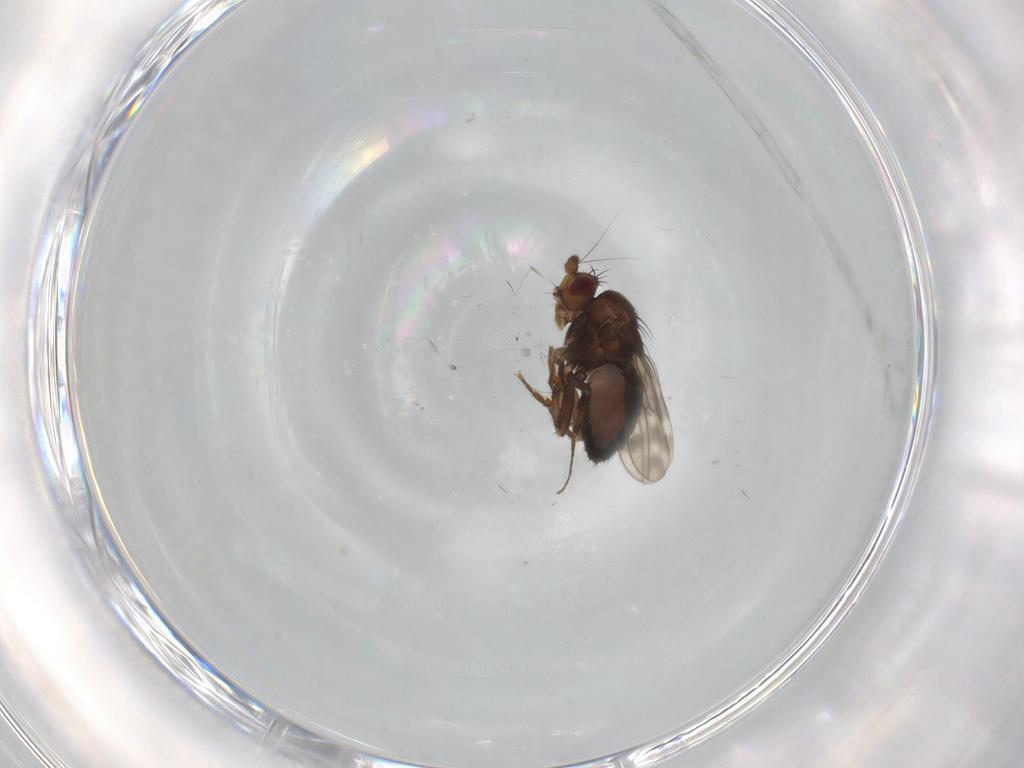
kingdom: Animalia
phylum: Arthropoda
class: Insecta
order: Diptera
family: Sphaeroceridae
